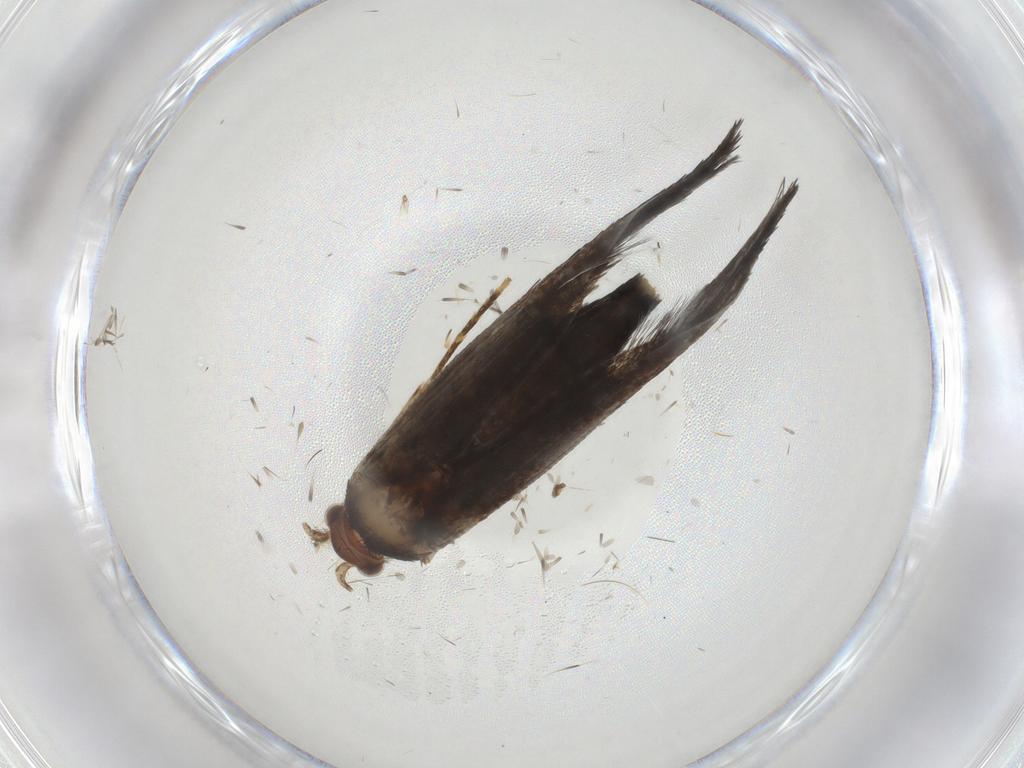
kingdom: Animalia
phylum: Arthropoda
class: Insecta
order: Lepidoptera
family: Tineidae
